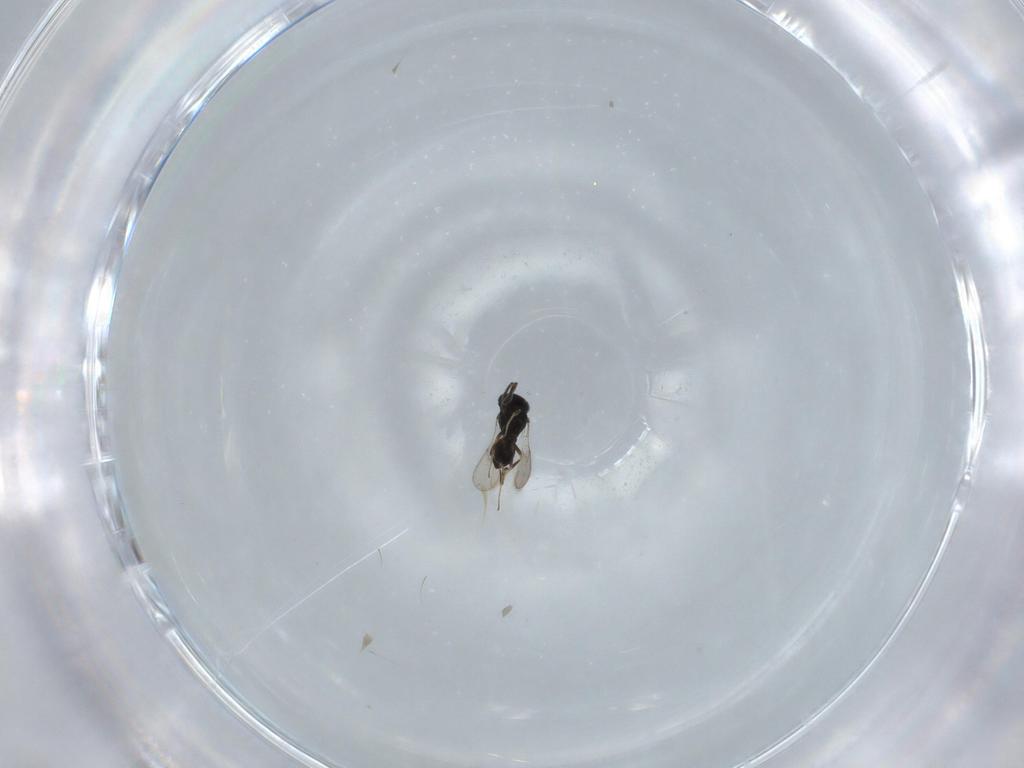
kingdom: Animalia
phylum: Arthropoda
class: Insecta
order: Hymenoptera
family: Scelionidae
